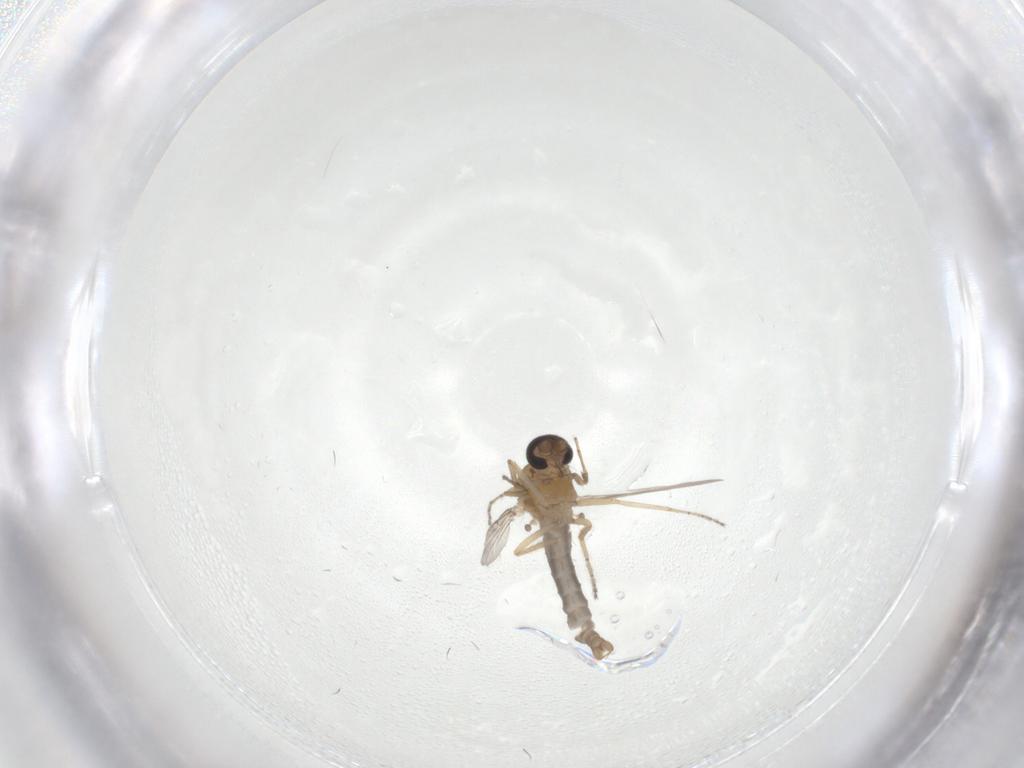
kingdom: Animalia
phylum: Arthropoda
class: Insecta
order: Diptera
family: Ceratopogonidae
